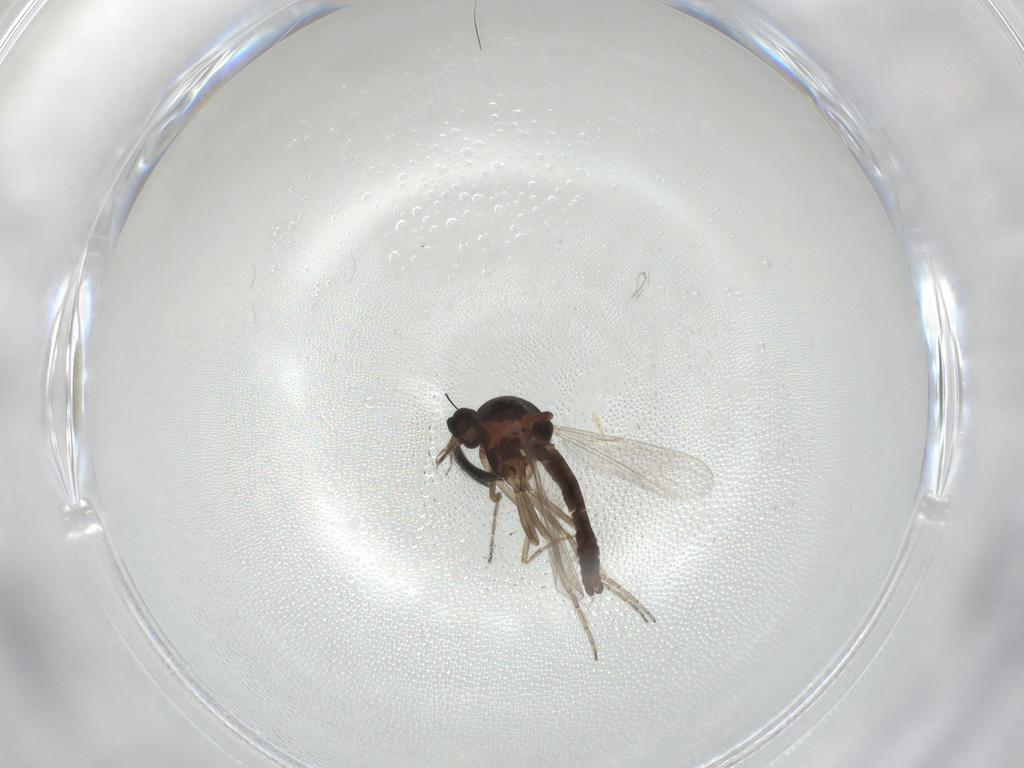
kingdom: Animalia
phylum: Arthropoda
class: Insecta
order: Diptera
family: Ceratopogonidae
